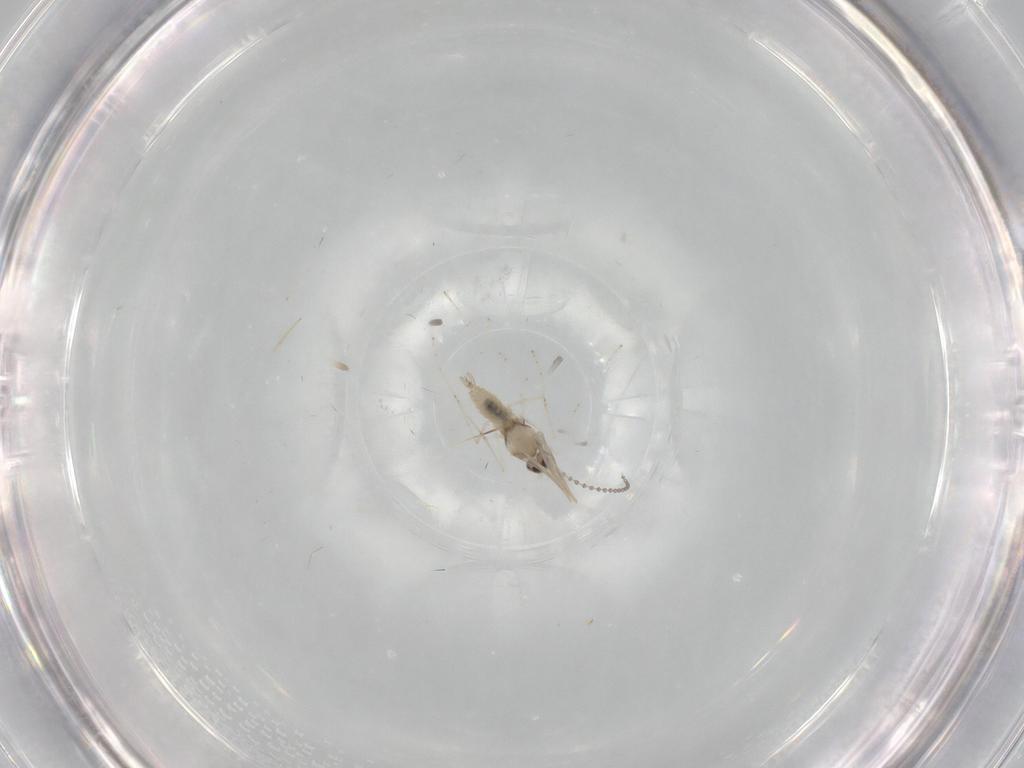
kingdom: Animalia
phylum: Arthropoda
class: Insecta
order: Diptera
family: Cecidomyiidae
